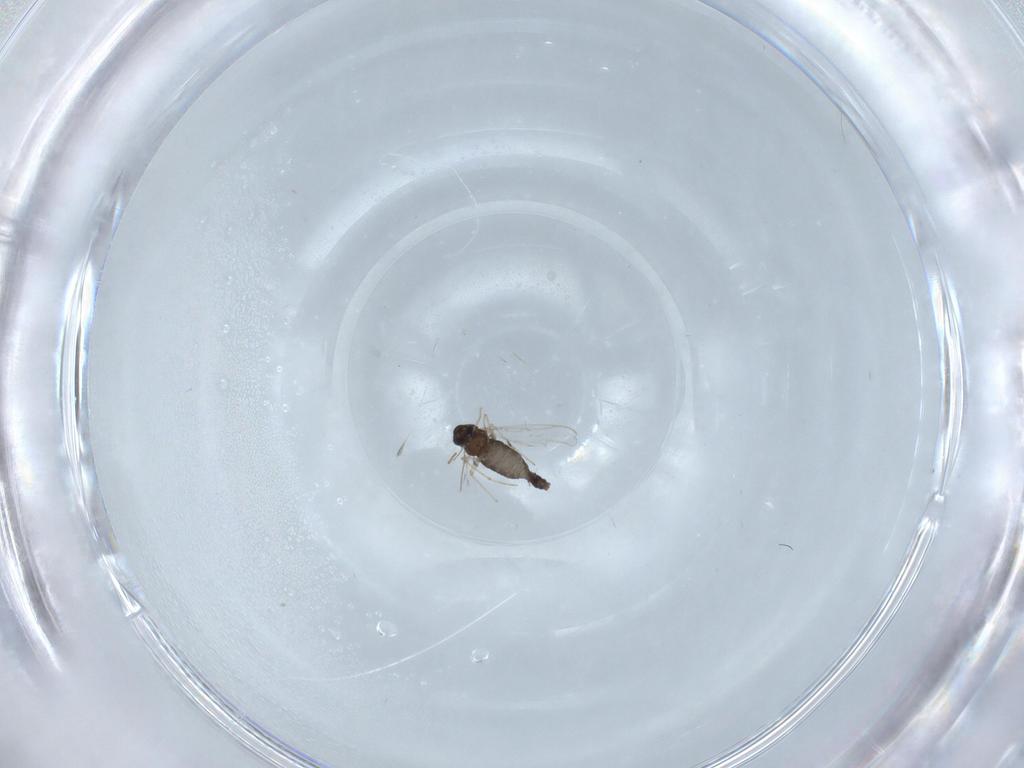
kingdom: Animalia
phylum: Arthropoda
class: Insecta
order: Diptera
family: Chironomidae
